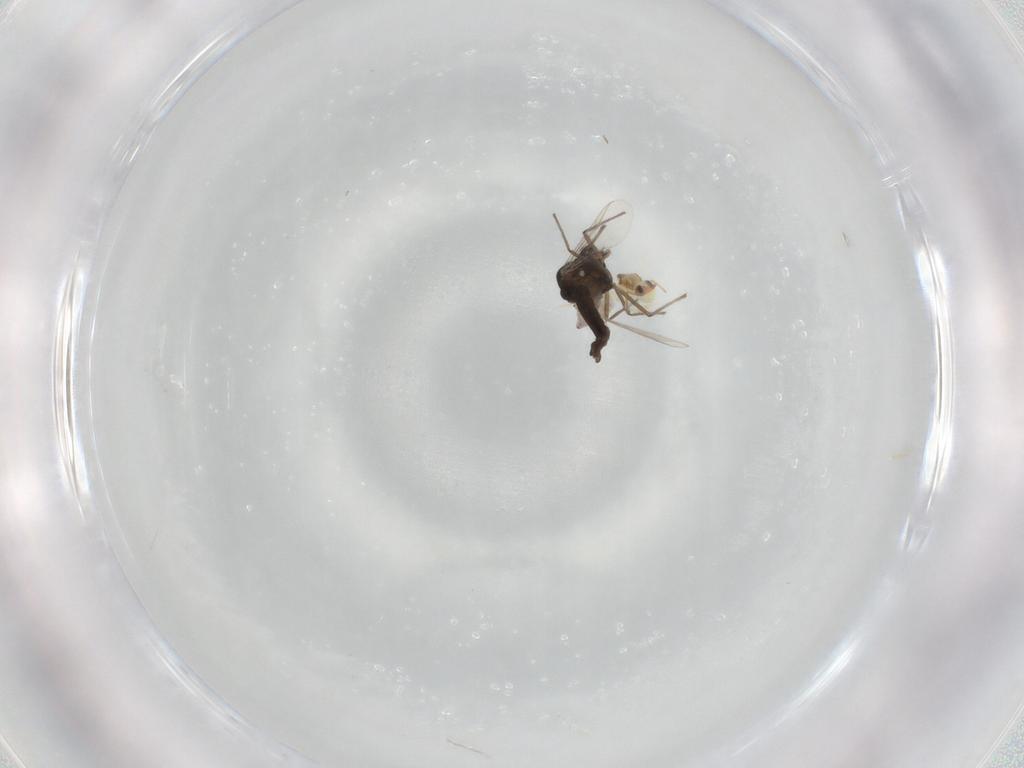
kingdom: Animalia
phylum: Arthropoda
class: Insecta
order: Diptera
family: Chironomidae
